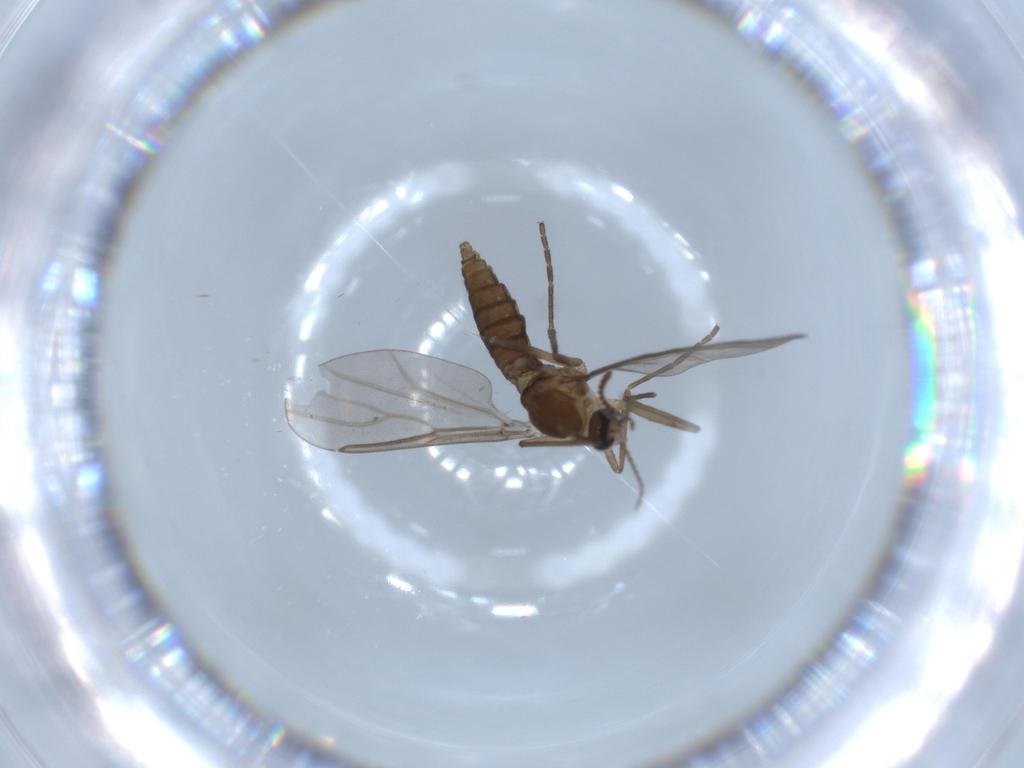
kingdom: Animalia
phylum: Arthropoda
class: Insecta
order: Diptera
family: Cecidomyiidae
